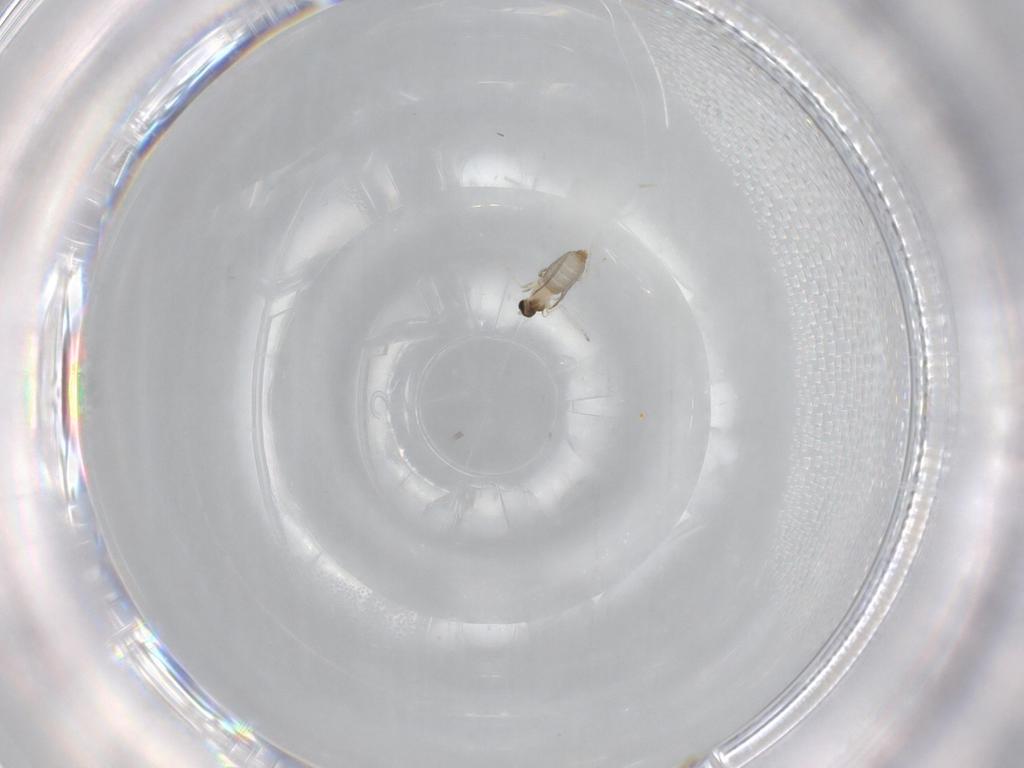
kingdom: Animalia
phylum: Arthropoda
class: Insecta
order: Diptera
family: Cecidomyiidae
